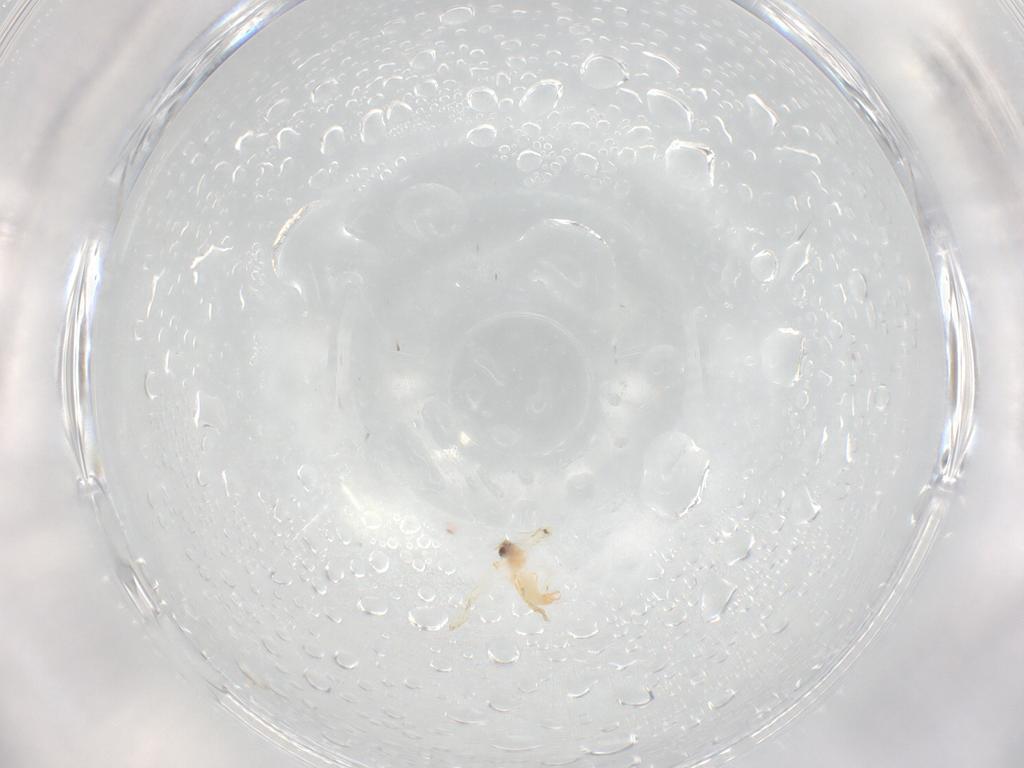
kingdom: Animalia
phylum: Arthropoda
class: Insecta
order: Hemiptera
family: Aleyrodidae
